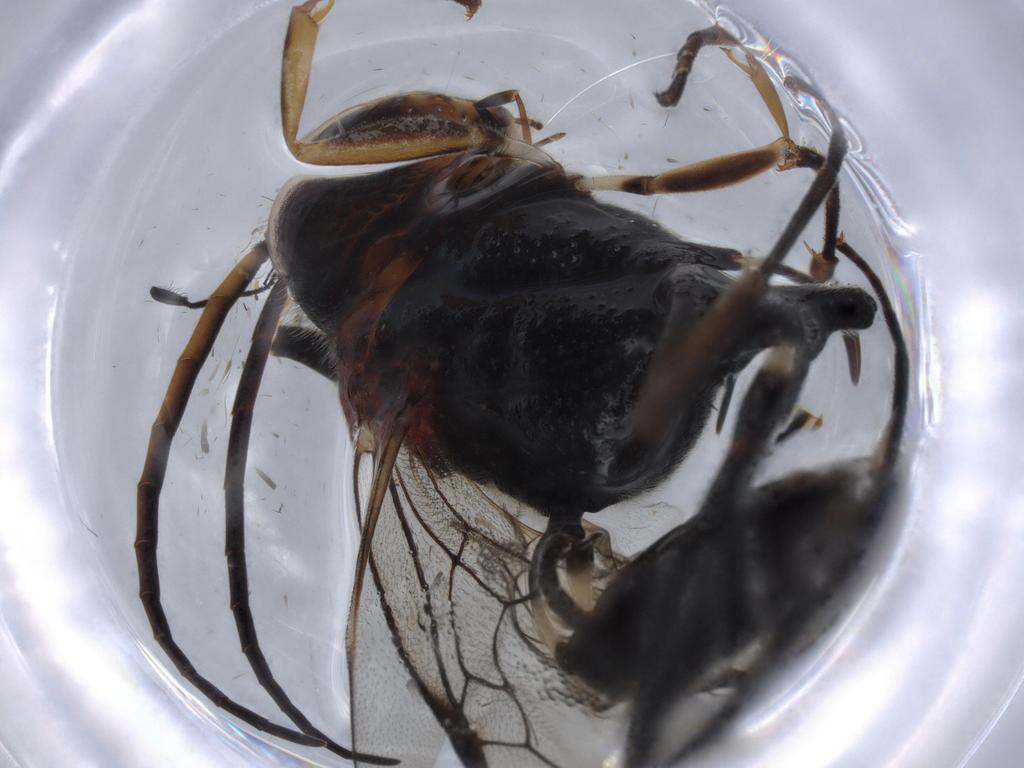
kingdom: Animalia
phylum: Arthropoda
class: Insecta
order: Hymenoptera
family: Evaniidae
